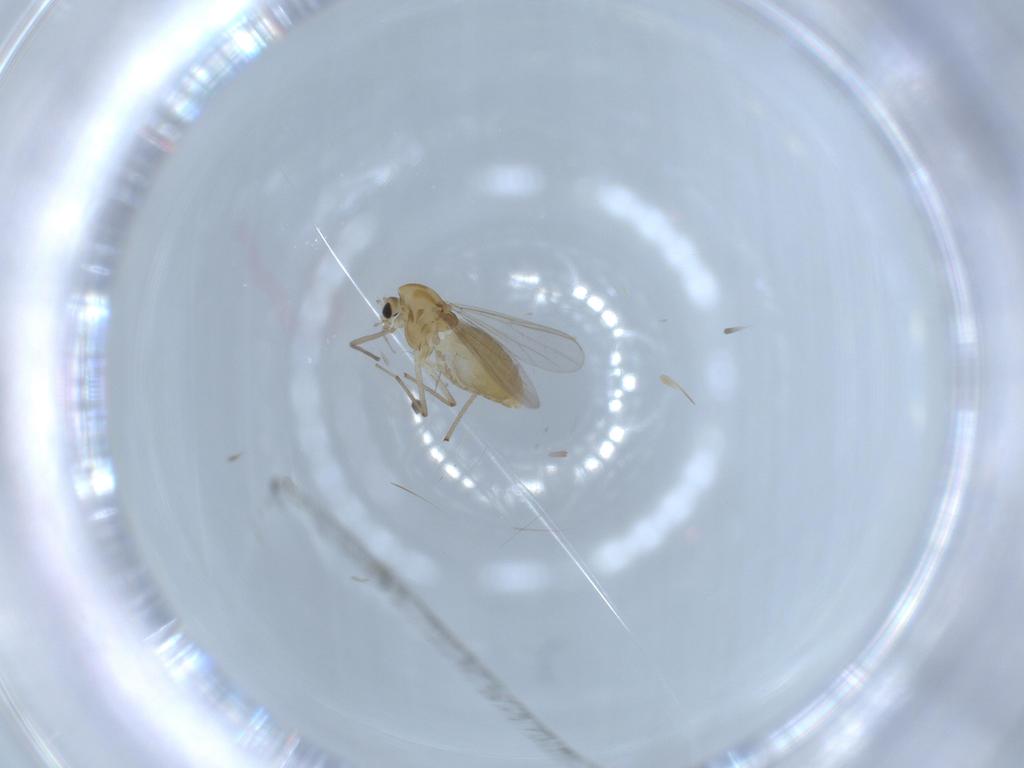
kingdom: Animalia
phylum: Arthropoda
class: Insecta
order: Diptera
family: Chironomidae
